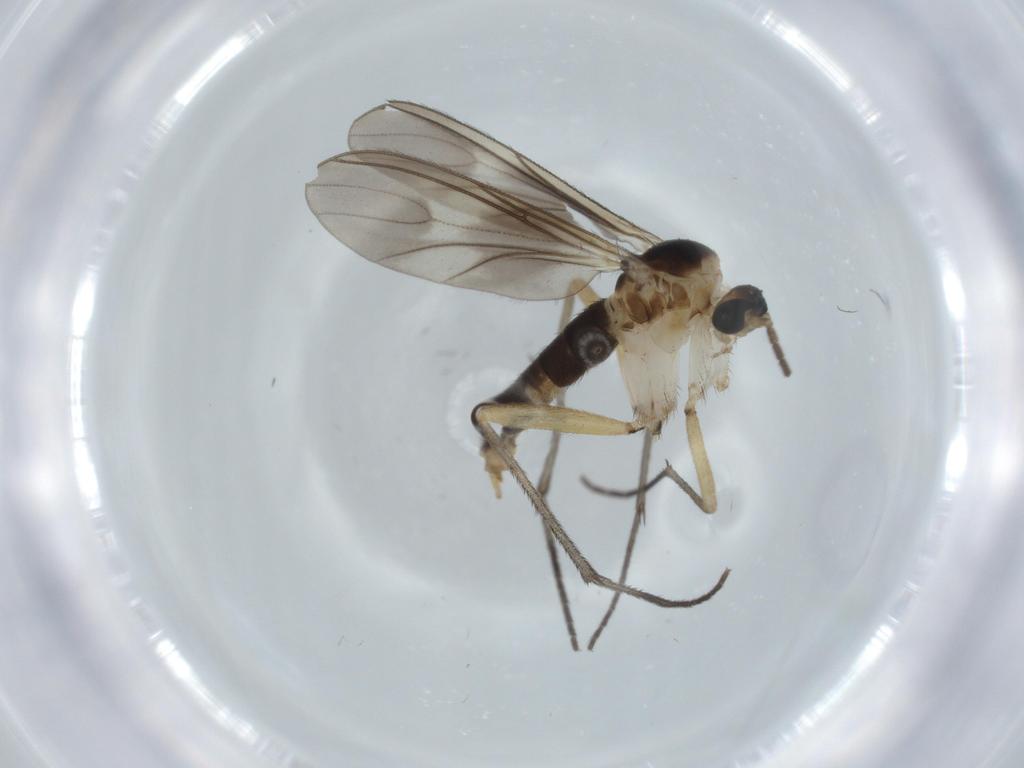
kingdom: Animalia
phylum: Arthropoda
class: Insecta
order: Diptera
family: Sciaridae
